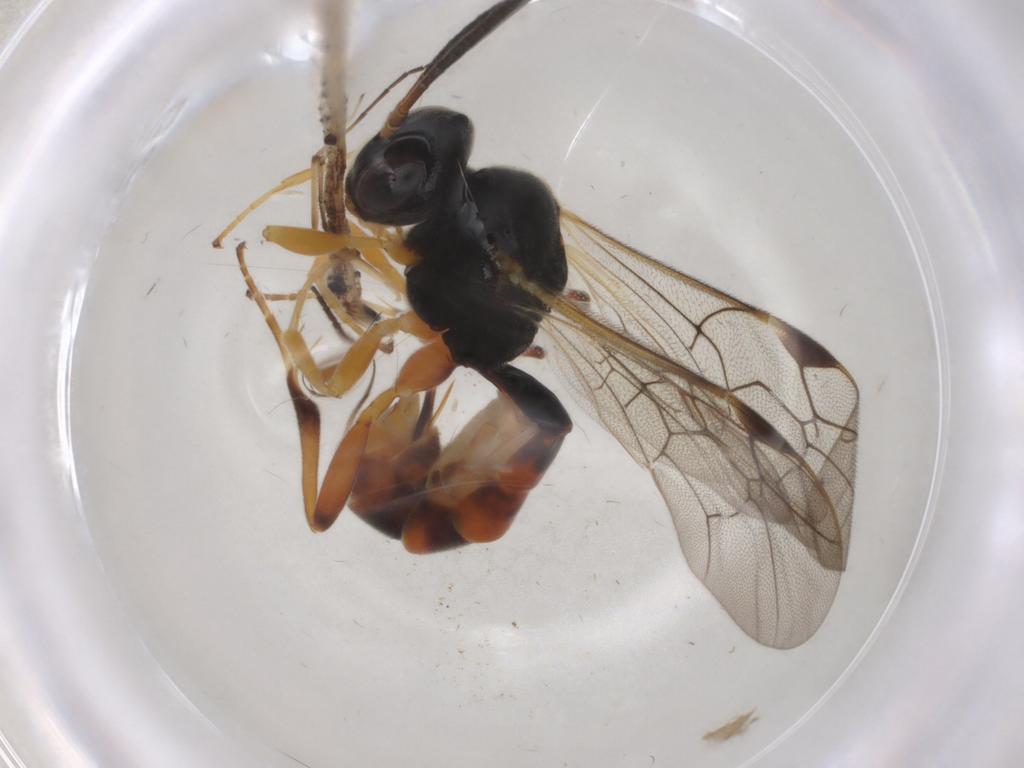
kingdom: Animalia
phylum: Arthropoda
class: Insecta
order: Hymenoptera
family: Ichneumonidae
